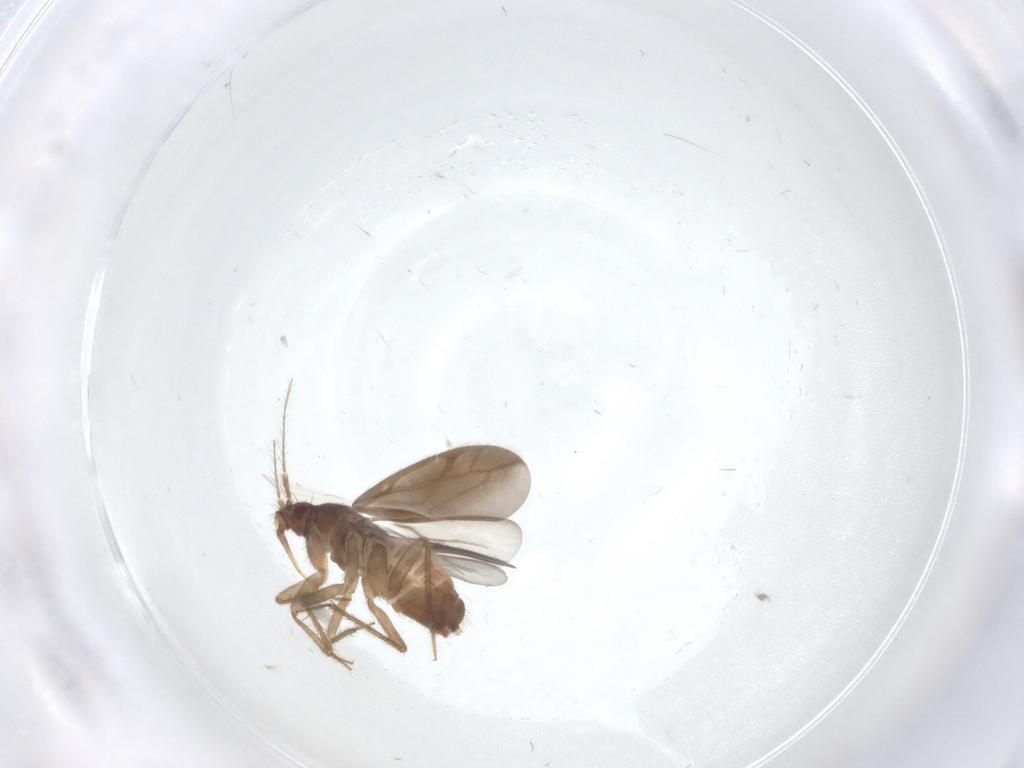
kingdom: Animalia
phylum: Arthropoda
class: Insecta
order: Hemiptera
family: Ceratocombidae
